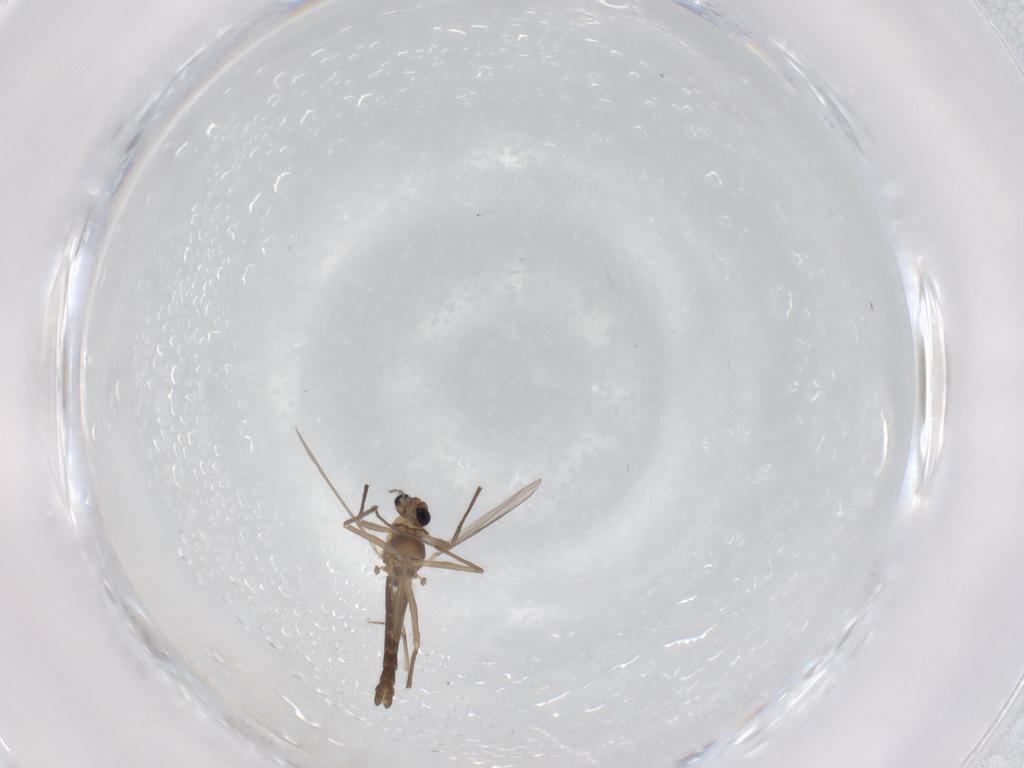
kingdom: Animalia
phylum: Arthropoda
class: Insecta
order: Diptera
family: Chironomidae
